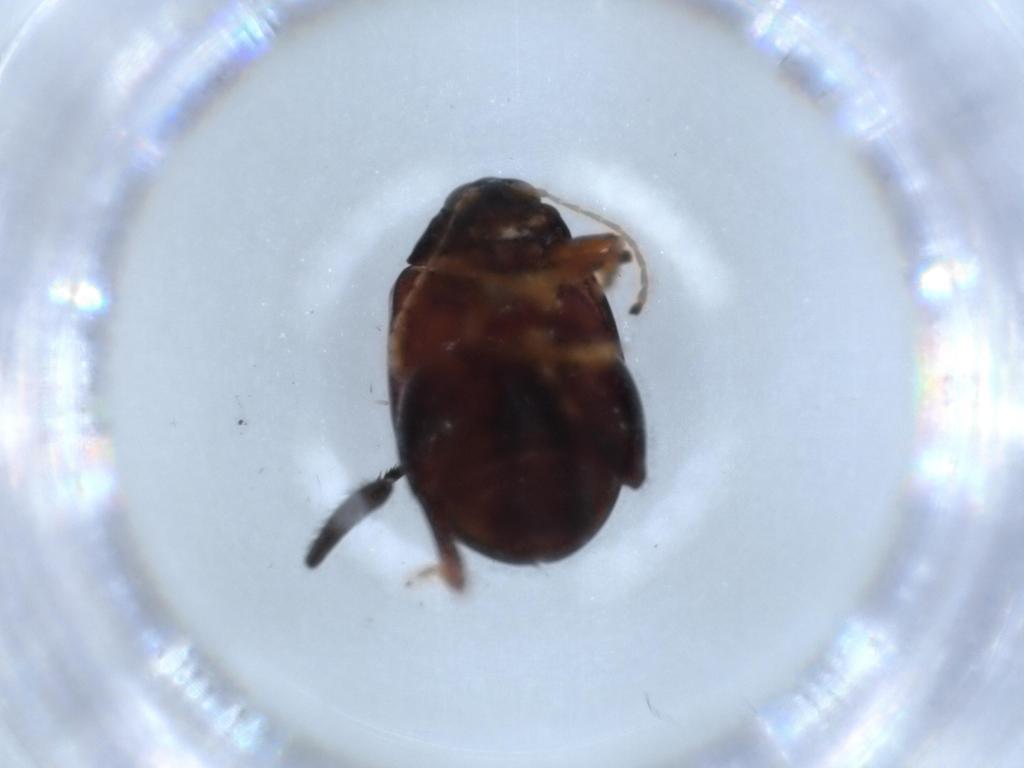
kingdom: Animalia
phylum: Arthropoda
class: Insecta
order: Coleoptera
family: Chrysomelidae
